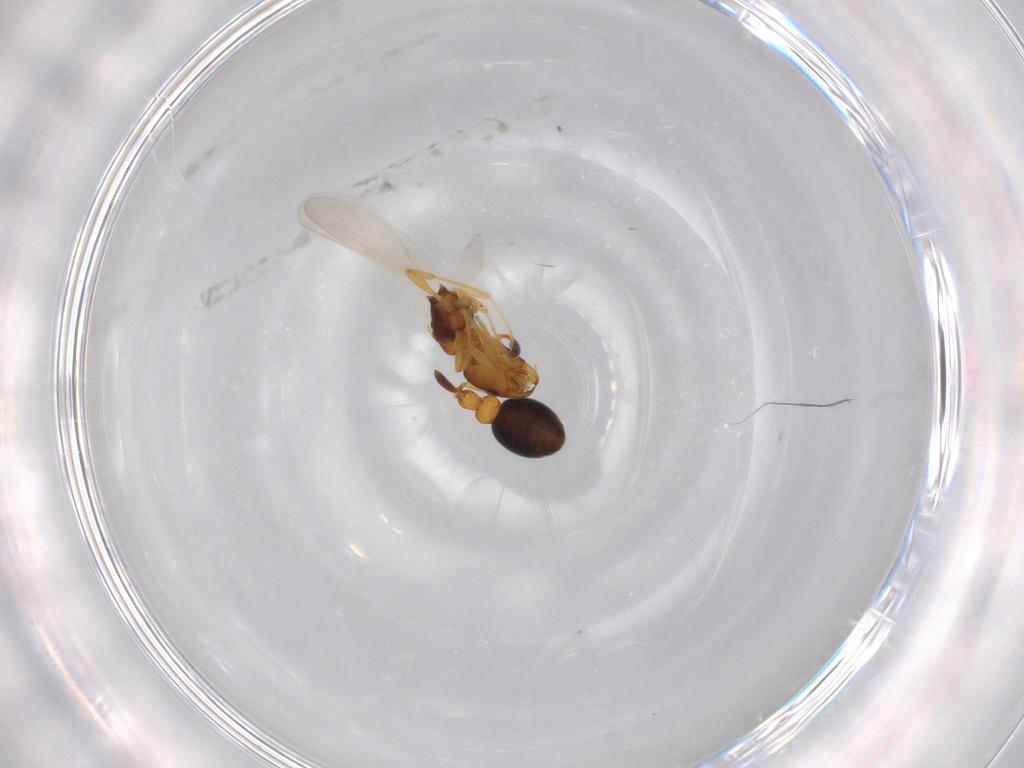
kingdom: Animalia
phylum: Arthropoda
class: Insecta
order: Hymenoptera
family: Formicidae
